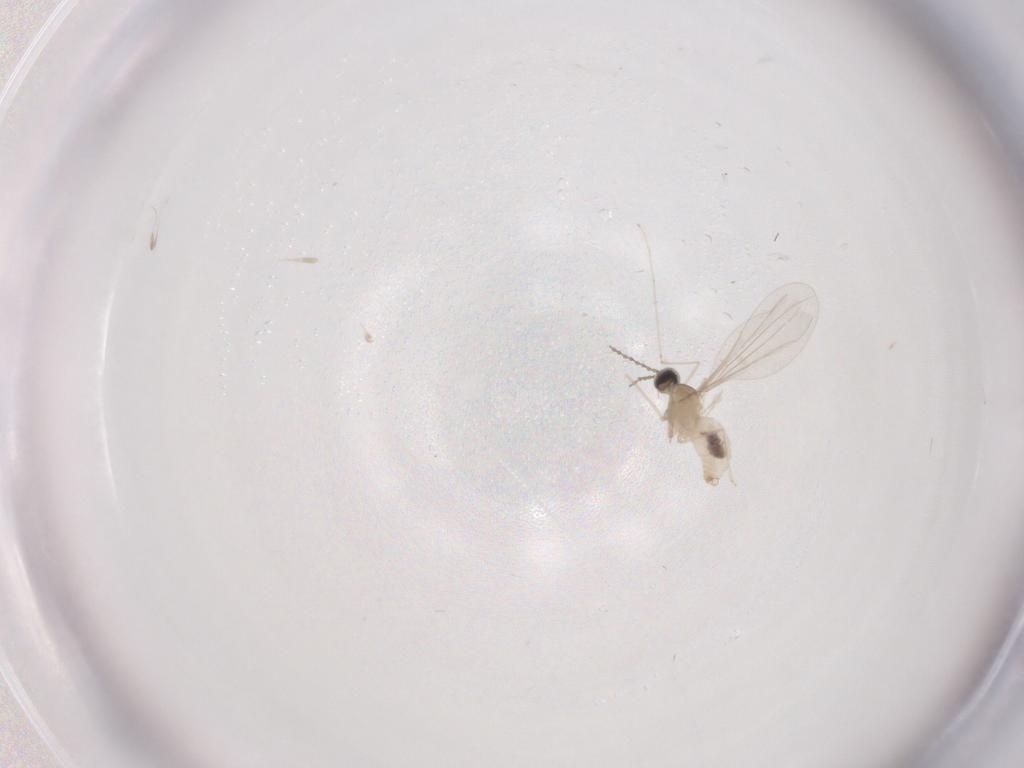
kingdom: Animalia
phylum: Arthropoda
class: Insecta
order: Diptera
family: Cecidomyiidae
